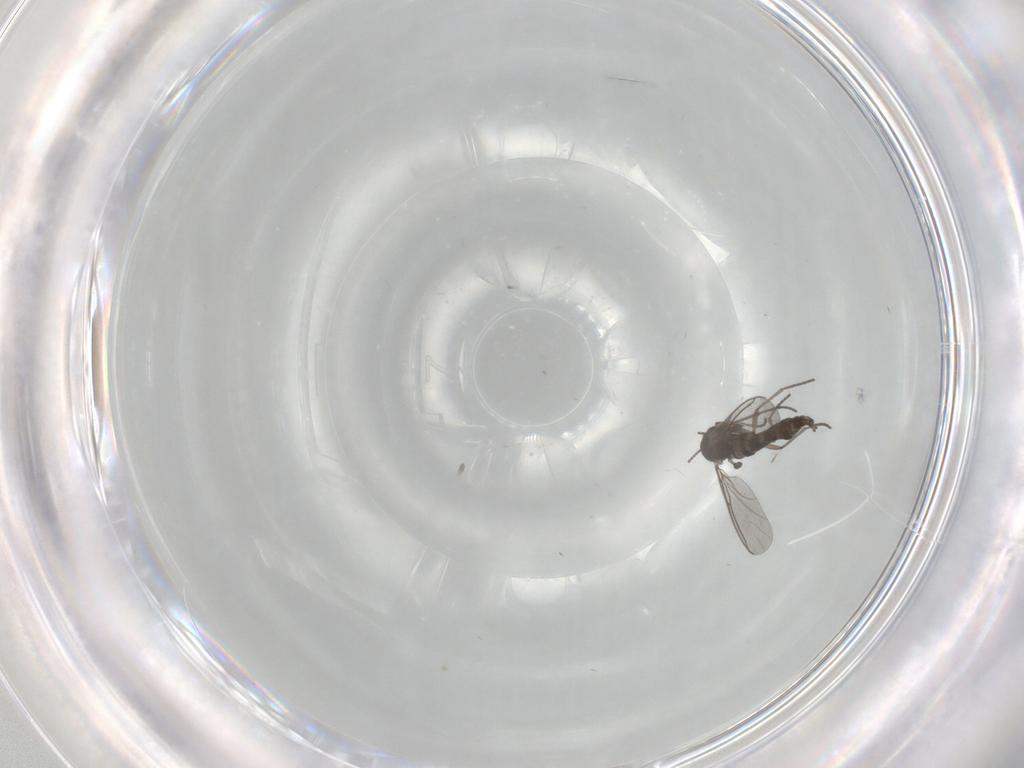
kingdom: Animalia
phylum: Arthropoda
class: Insecta
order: Diptera
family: Sciaridae
